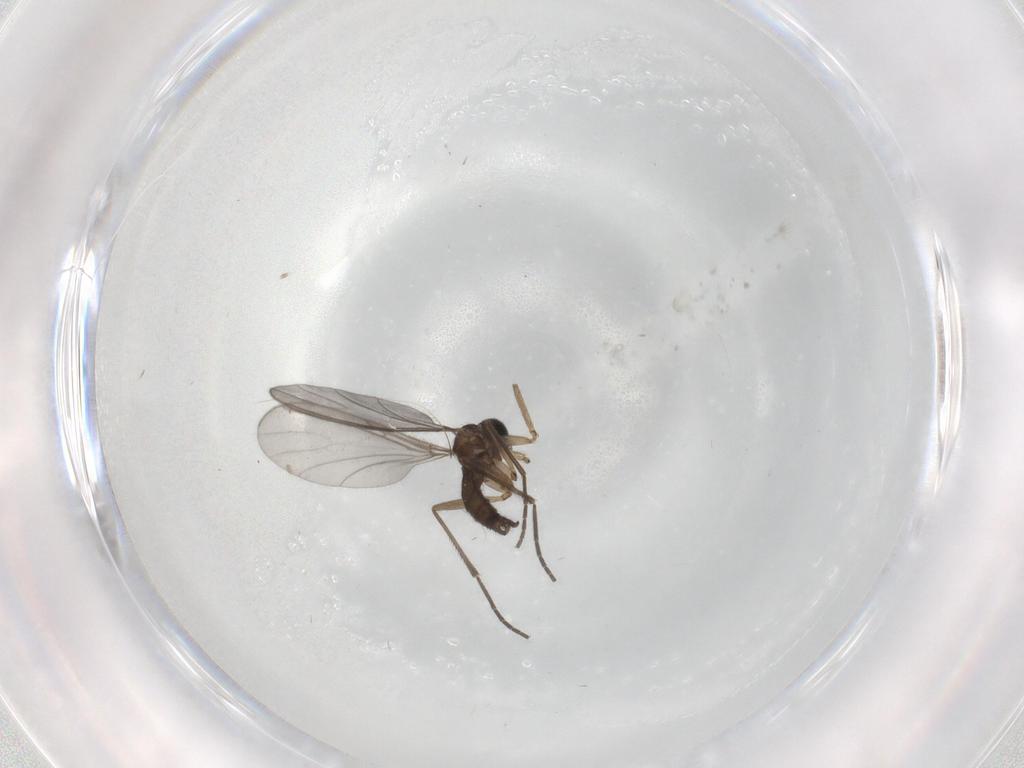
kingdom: Animalia
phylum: Arthropoda
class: Insecta
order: Diptera
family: Sciaridae
